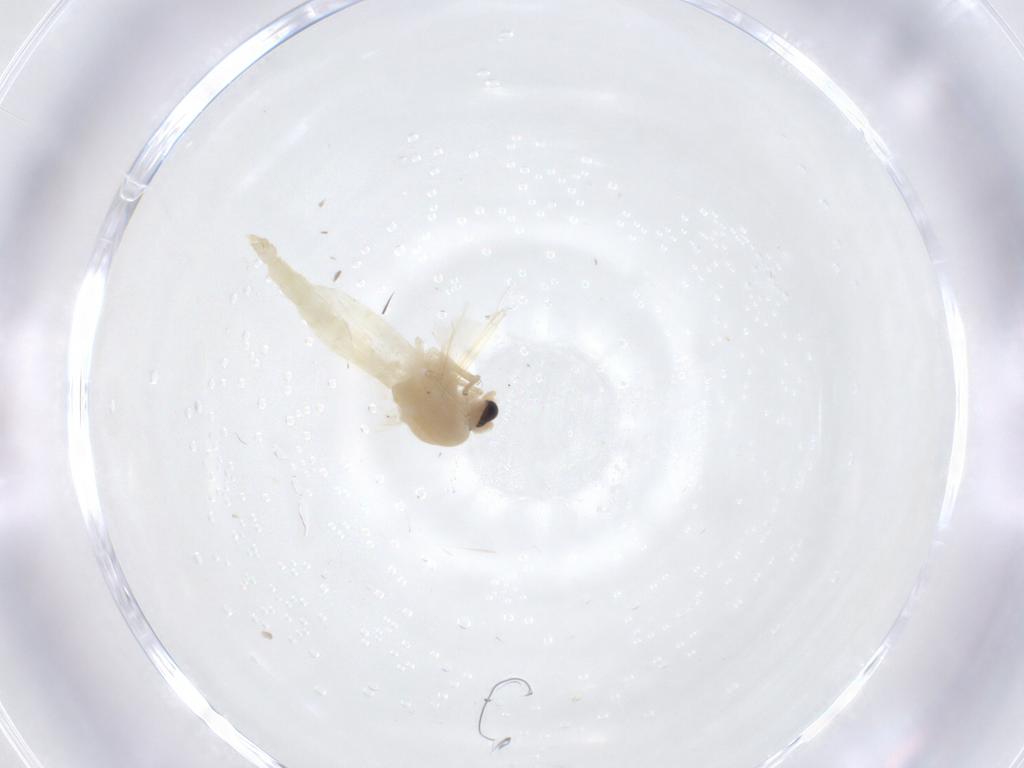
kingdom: Animalia
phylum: Arthropoda
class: Insecta
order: Diptera
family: Chironomidae
